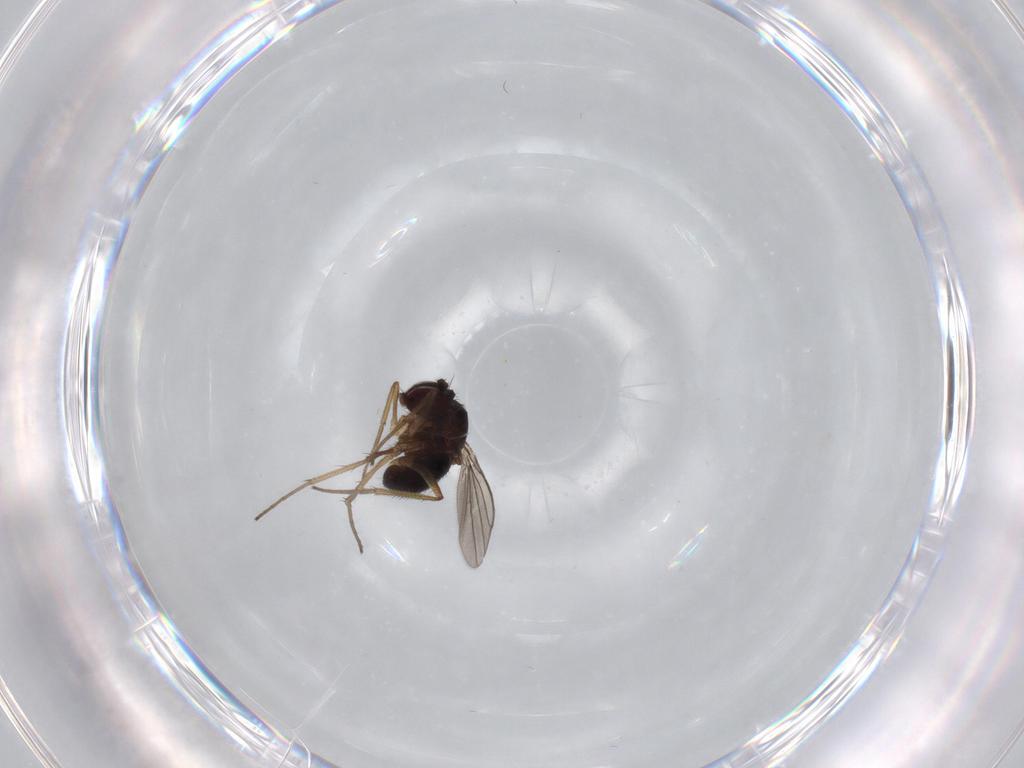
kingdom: Animalia
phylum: Arthropoda
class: Insecta
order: Diptera
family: Dolichopodidae
